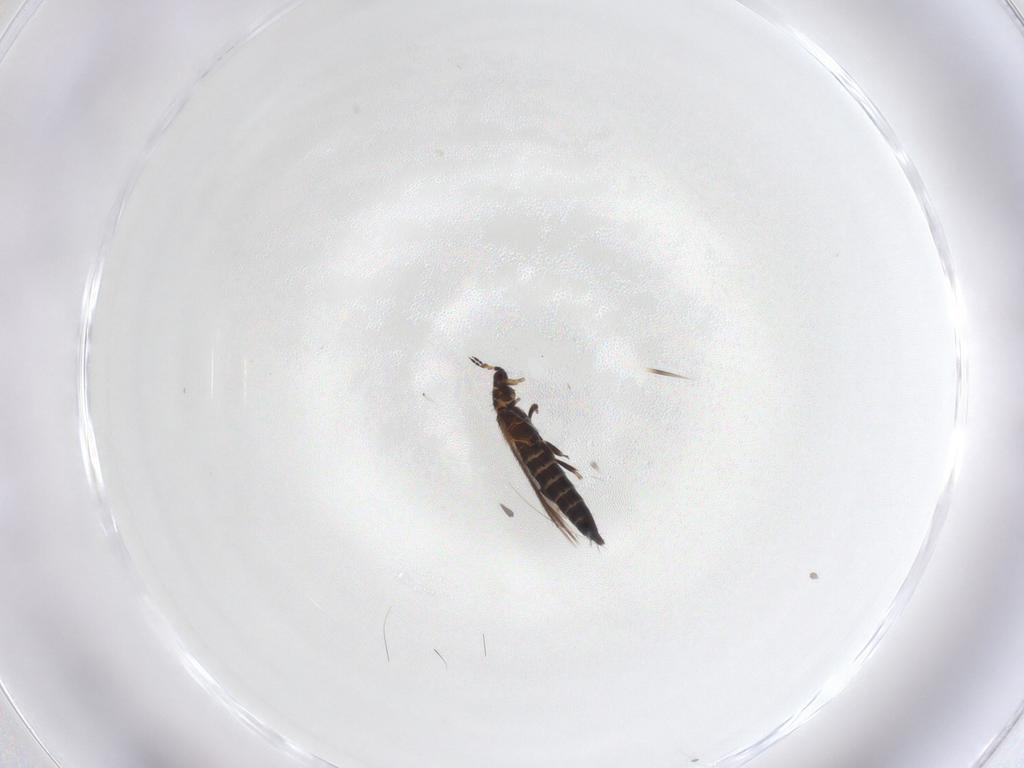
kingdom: Animalia
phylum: Arthropoda
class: Insecta
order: Thysanoptera
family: Thripidae
